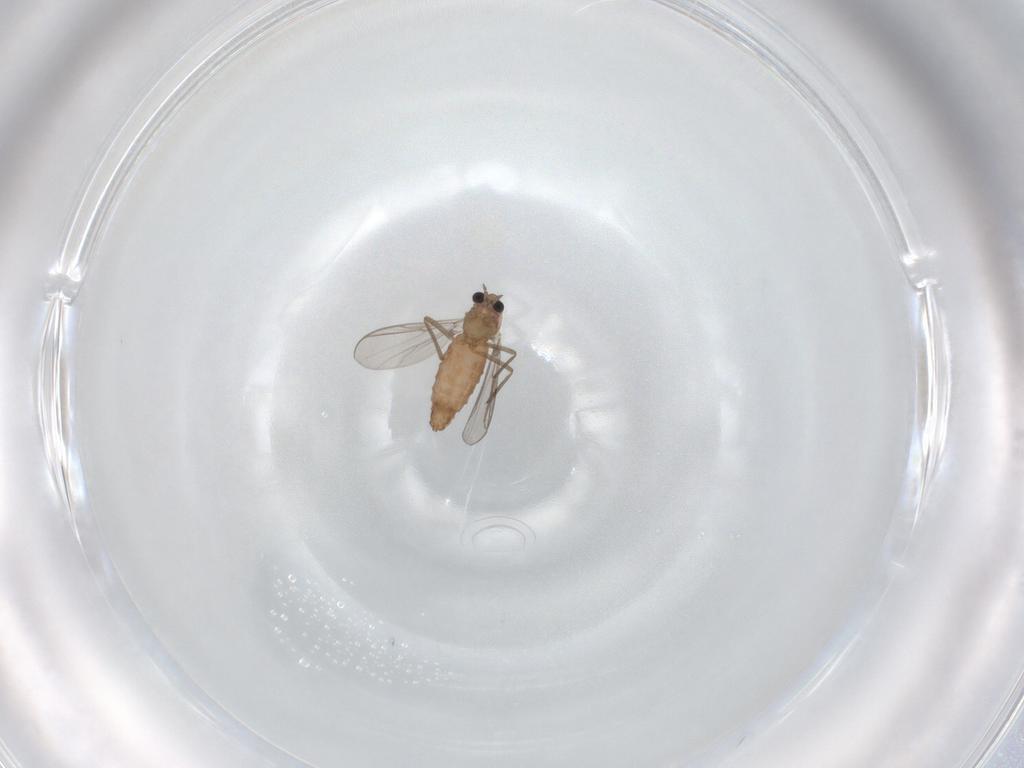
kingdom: Animalia
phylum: Arthropoda
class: Insecta
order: Diptera
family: Chironomidae
